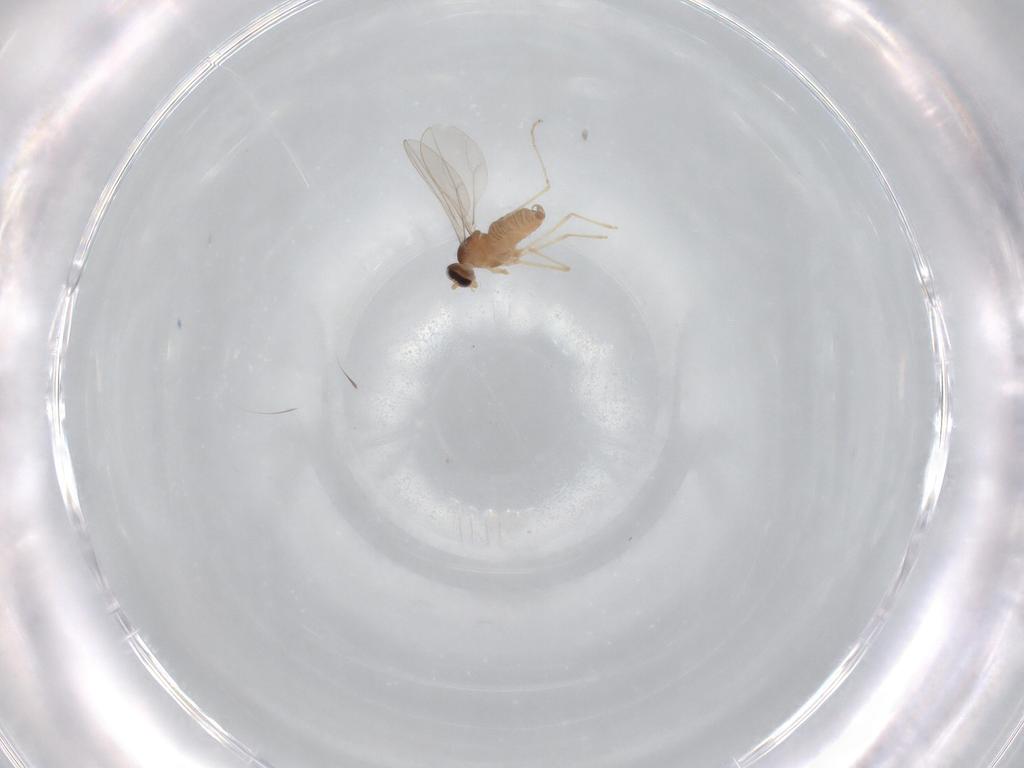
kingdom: Animalia
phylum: Arthropoda
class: Insecta
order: Diptera
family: Cecidomyiidae
